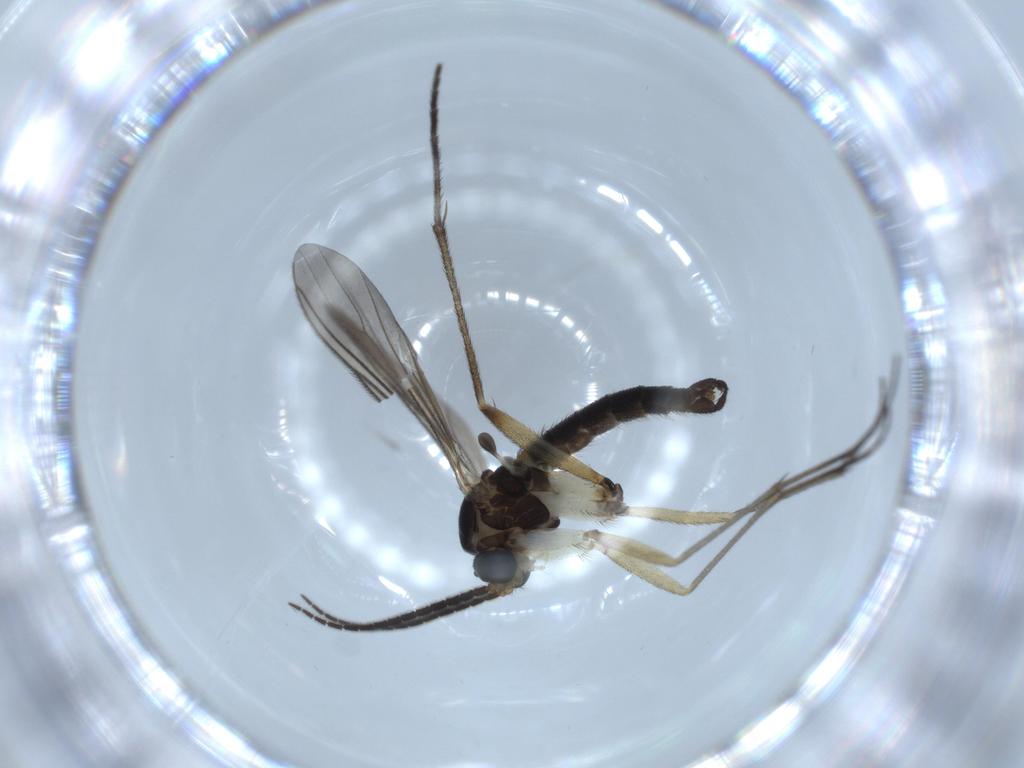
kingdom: Animalia
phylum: Arthropoda
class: Insecta
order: Diptera
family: Sciaridae
